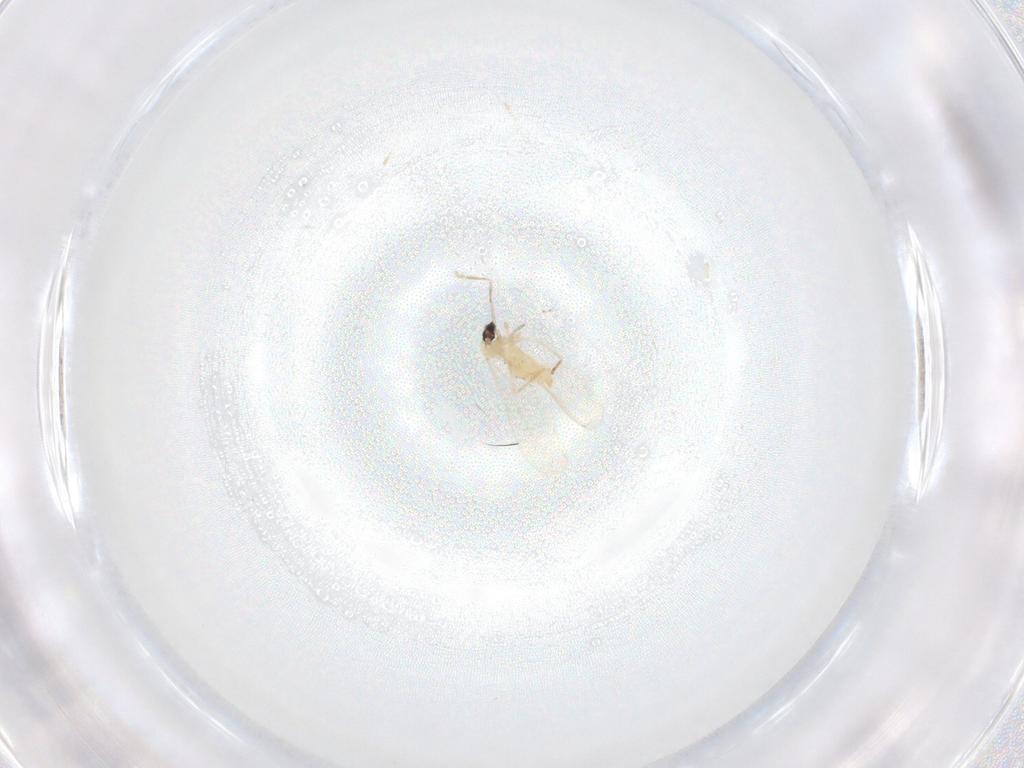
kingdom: Animalia
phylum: Arthropoda
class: Insecta
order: Diptera
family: Cecidomyiidae
